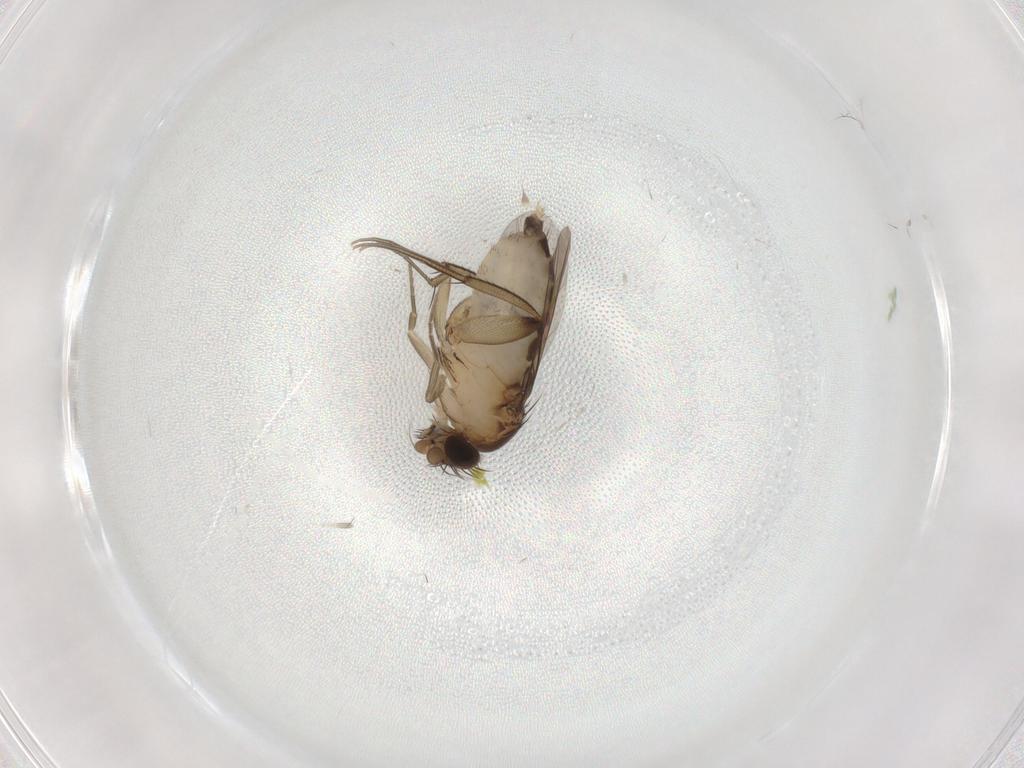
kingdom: Animalia
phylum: Arthropoda
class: Insecta
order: Diptera
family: Phoridae
